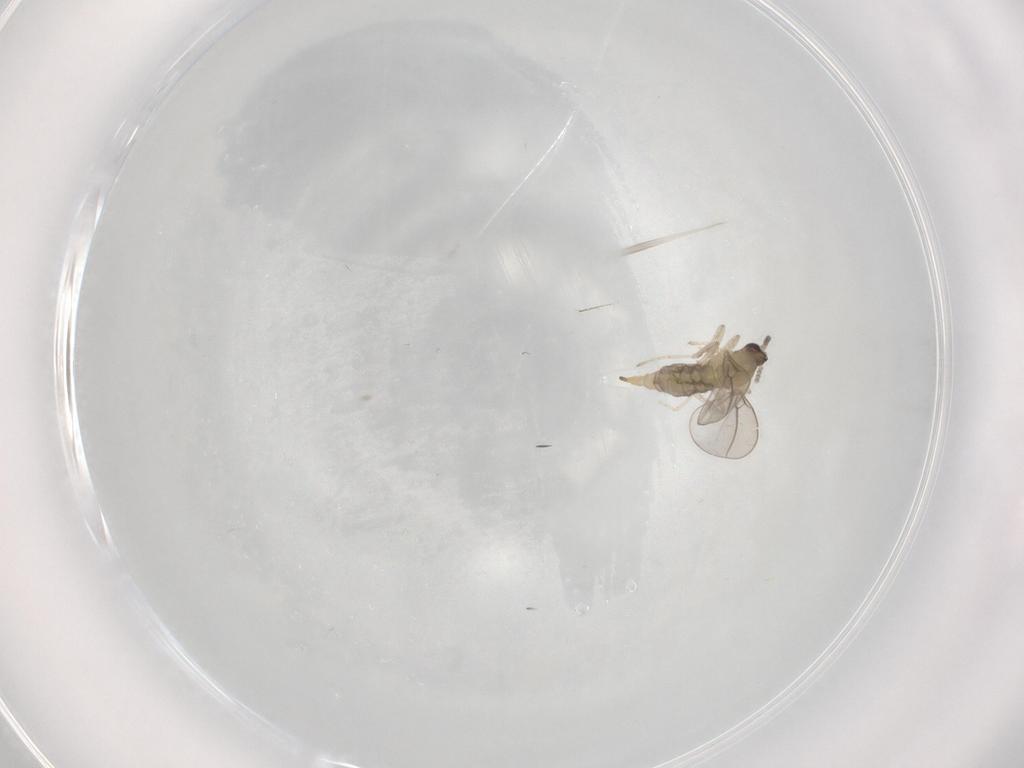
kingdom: Animalia
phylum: Arthropoda
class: Insecta
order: Diptera
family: Cecidomyiidae
